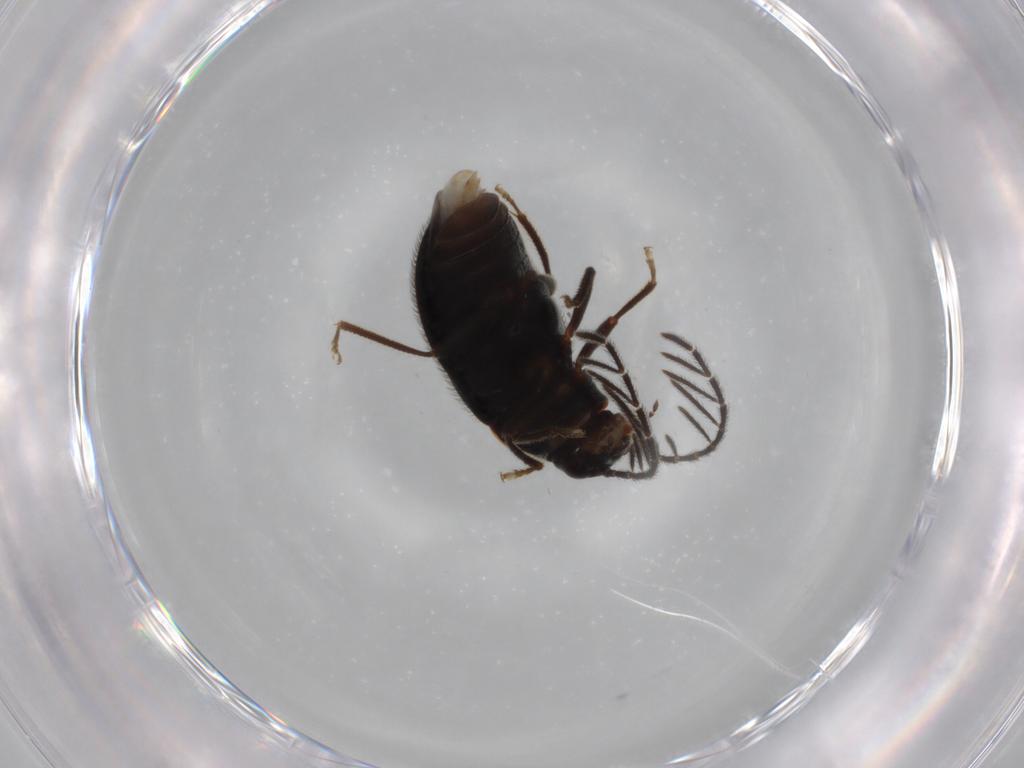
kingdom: Animalia
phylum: Arthropoda
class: Insecta
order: Coleoptera
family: Ptilodactylidae
